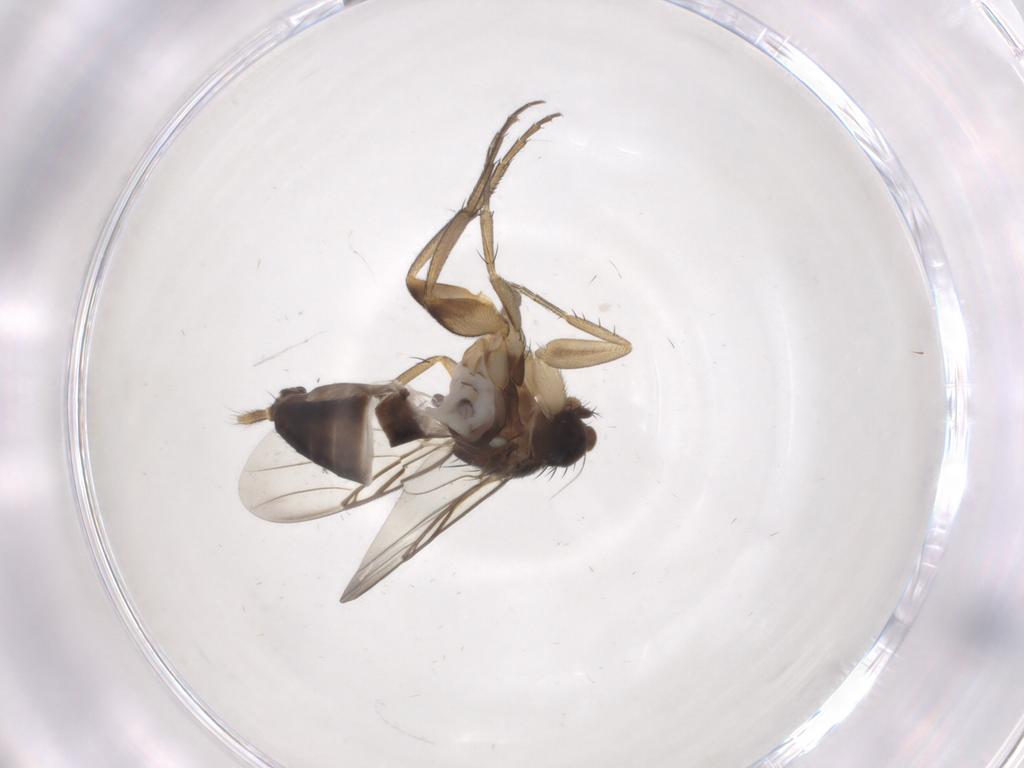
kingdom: Animalia
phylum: Arthropoda
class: Insecta
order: Diptera
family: Phoridae
